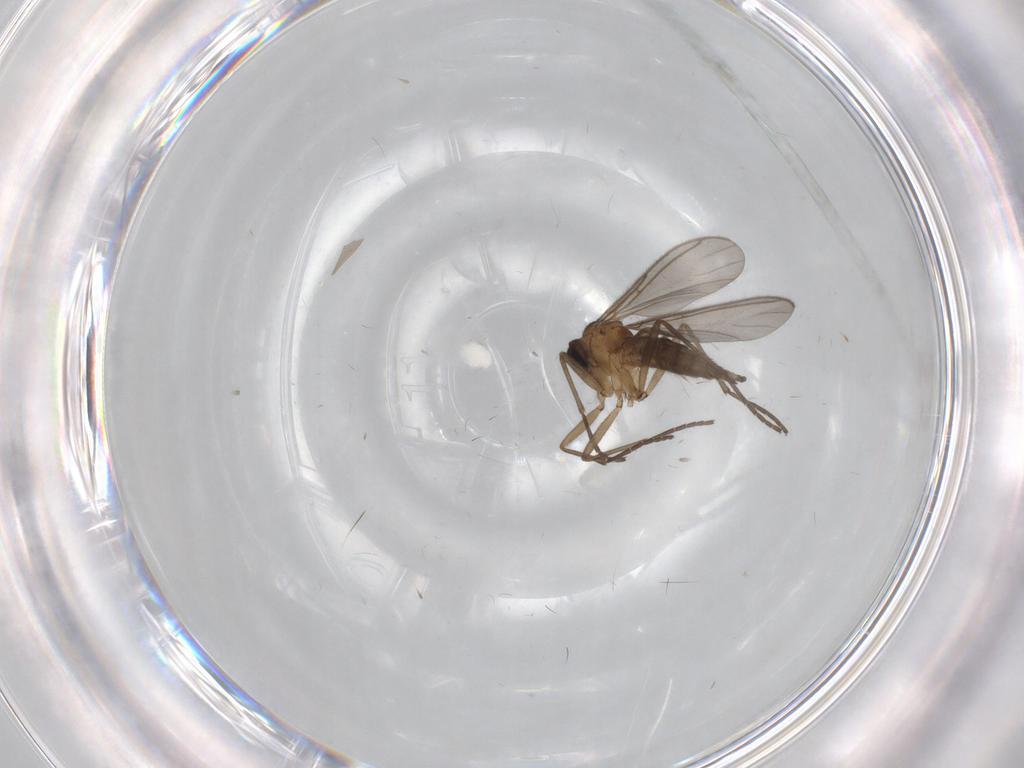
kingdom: Animalia
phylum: Arthropoda
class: Insecta
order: Diptera
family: Sciaridae
